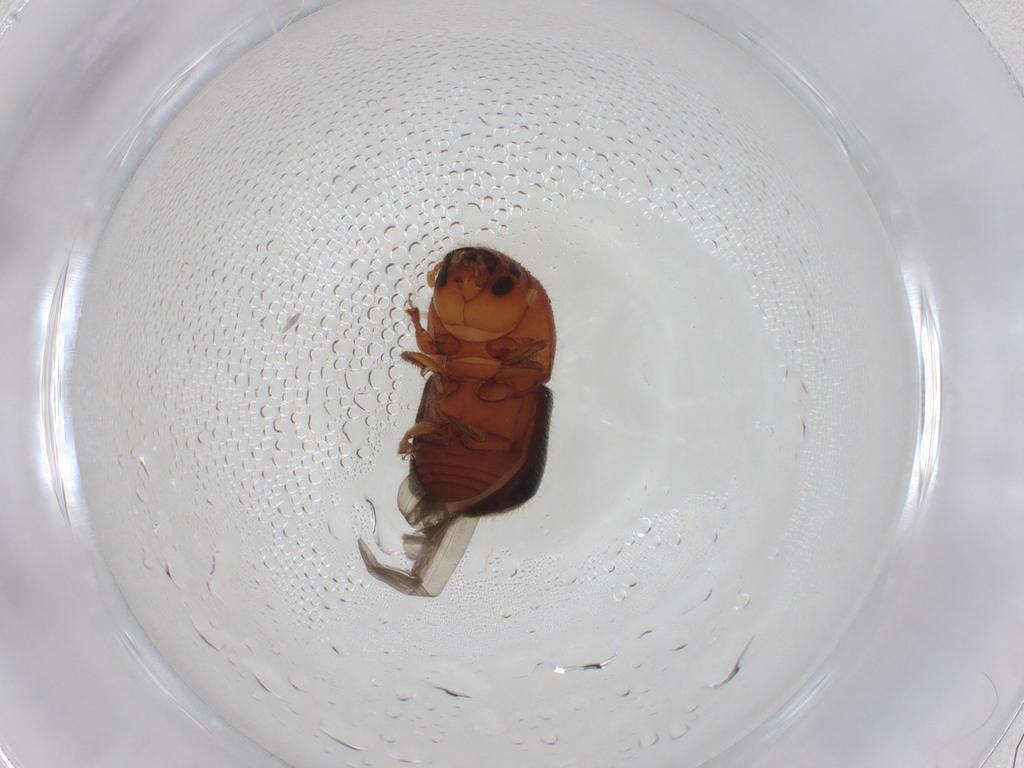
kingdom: Animalia
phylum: Arthropoda
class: Insecta
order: Coleoptera
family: Curculionidae
